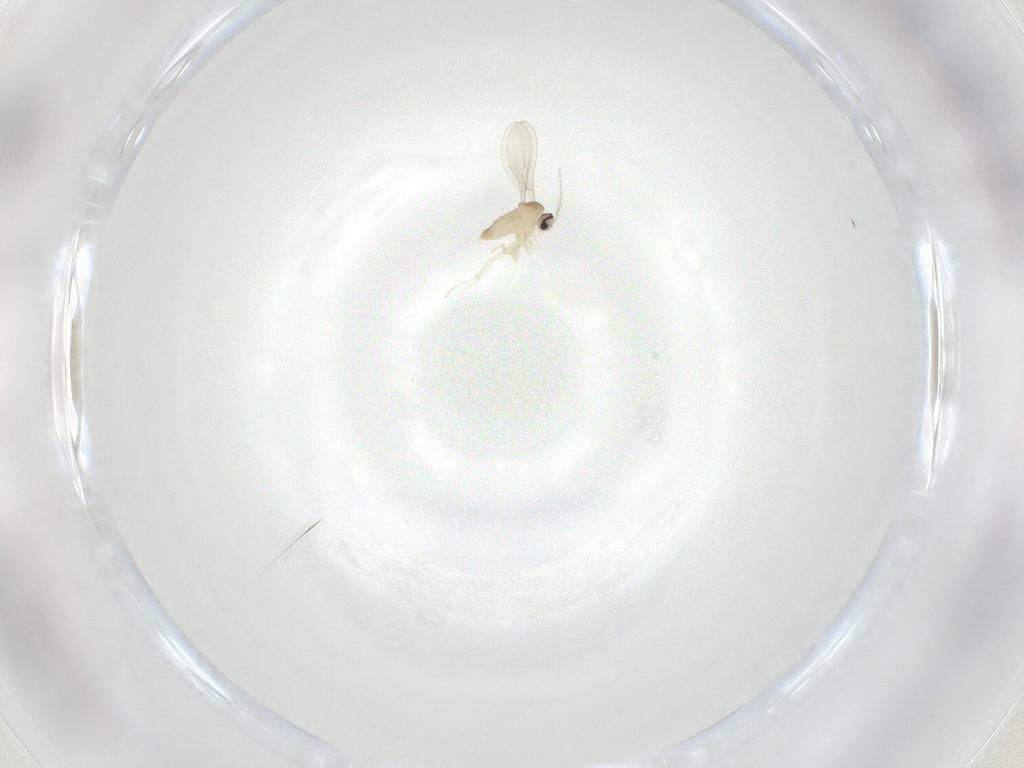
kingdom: Animalia
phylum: Arthropoda
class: Insecta
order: Diptera
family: Cecidomyiidae
